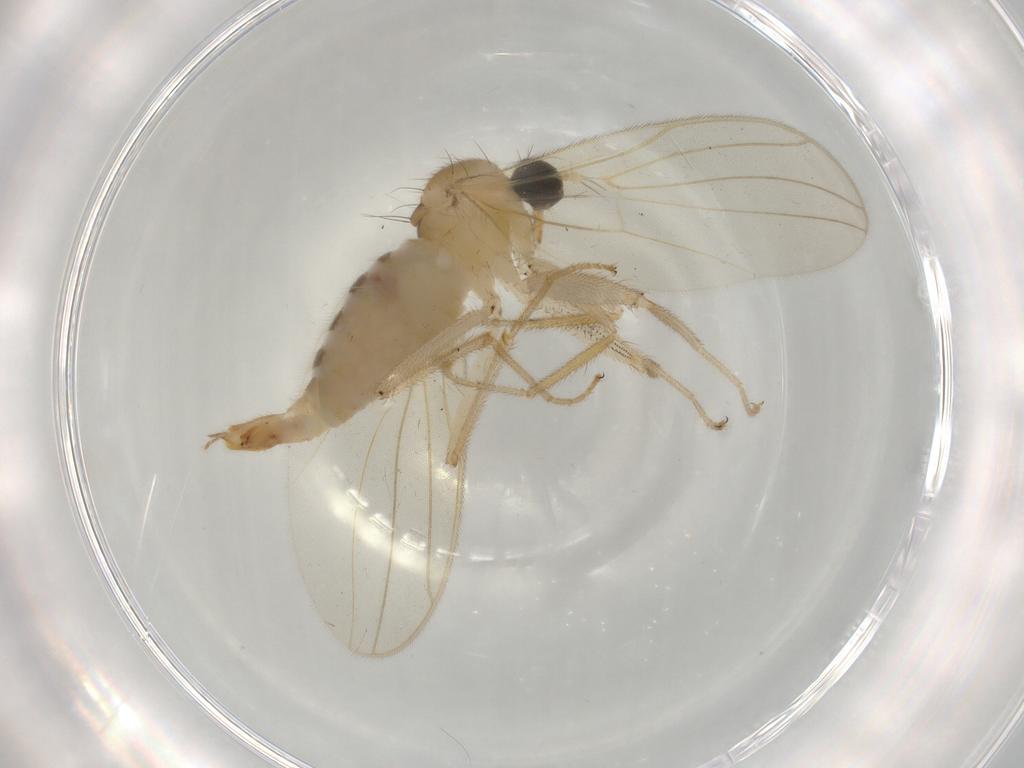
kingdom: Animalia
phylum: Arthropoda
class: Insecta
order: Diptera
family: Hybotidae
